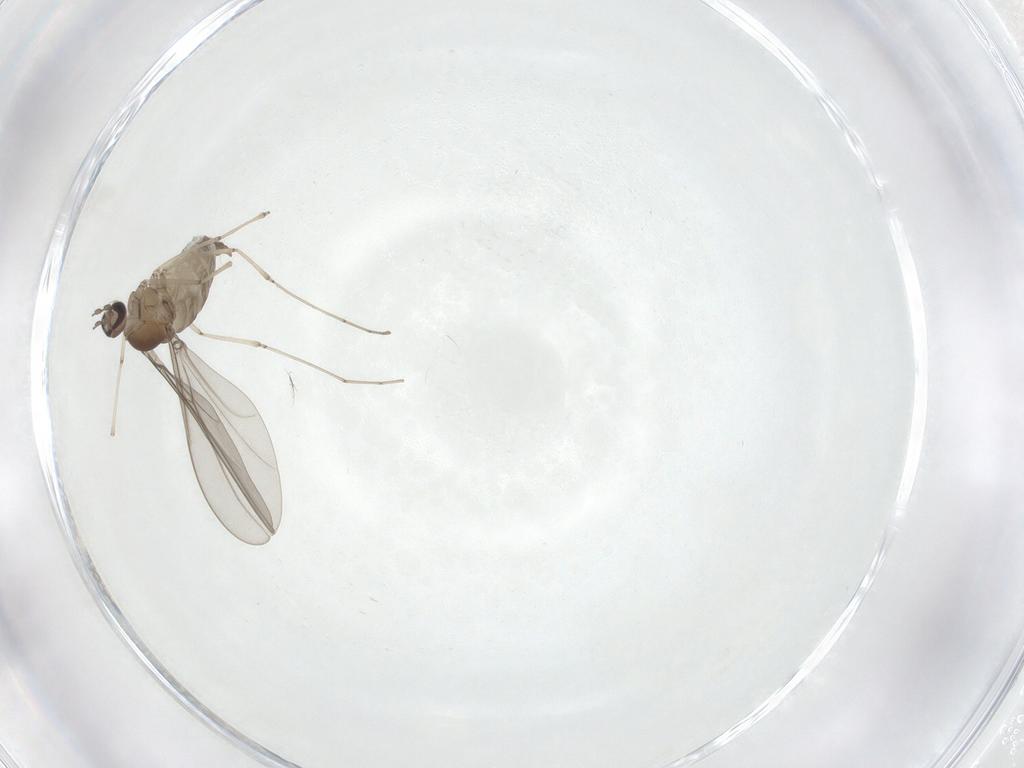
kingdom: Animalia
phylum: Arthropoda
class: Insecta
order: Diptera
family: Cecidomyiidae
